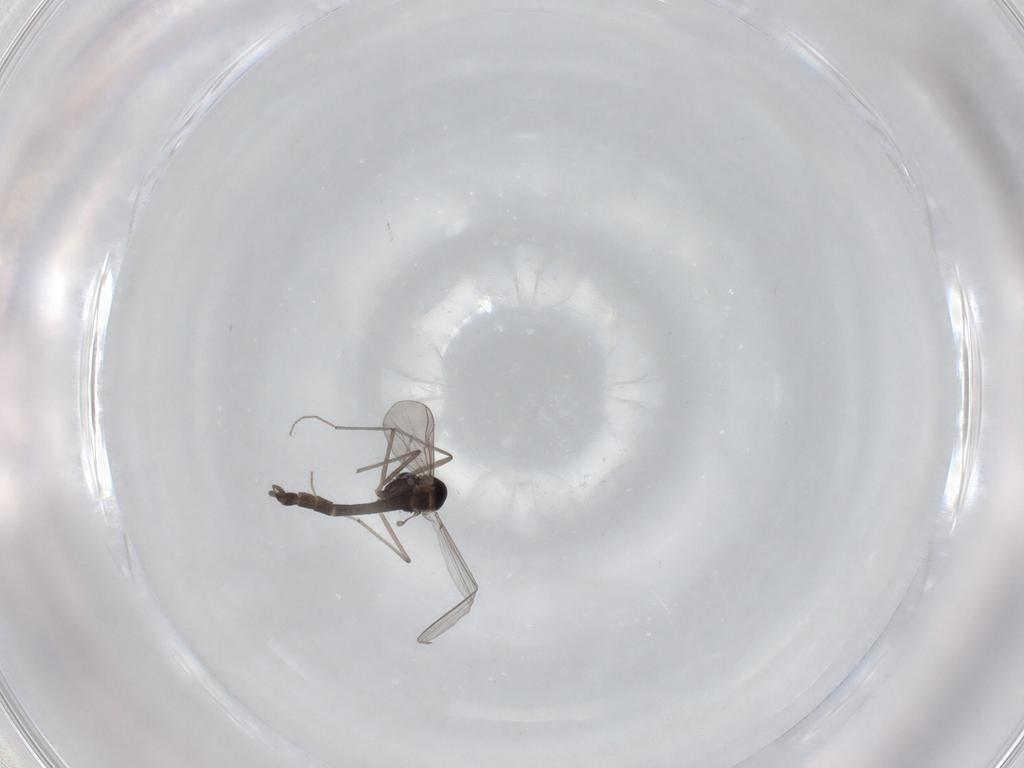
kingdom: Animalia
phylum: Arthropoda
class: Insecta
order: Diptera
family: Chironomidae
